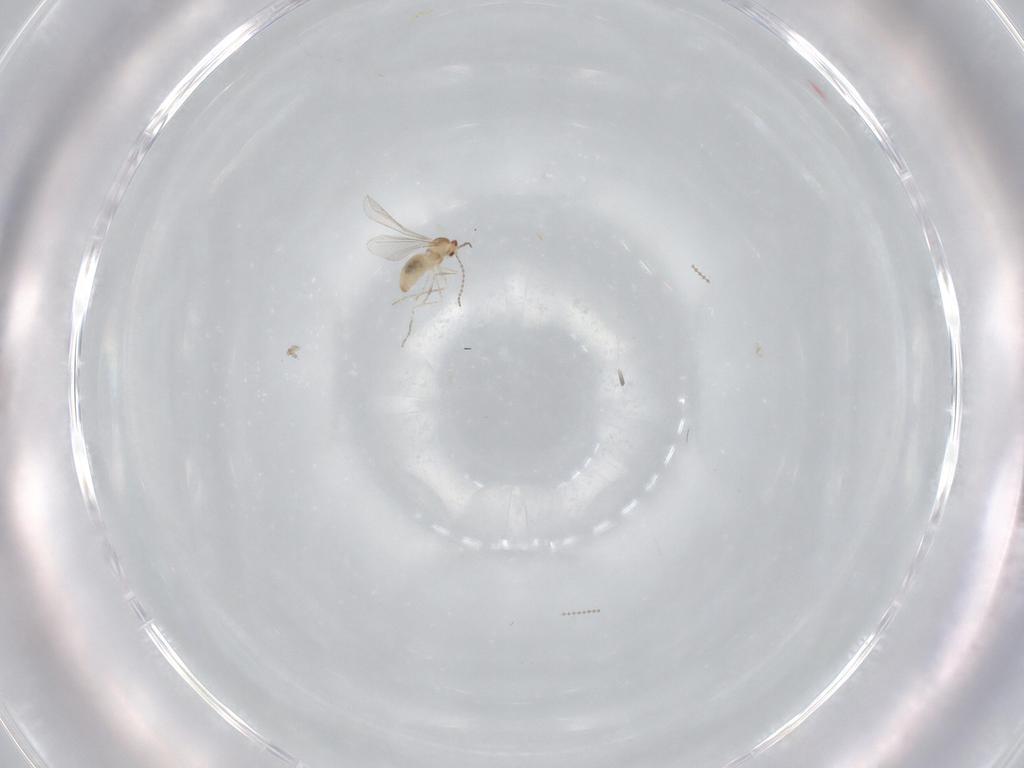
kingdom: Animalia
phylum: Arthropoda
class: Insecta
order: Diptera
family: Cecidomyiidae
